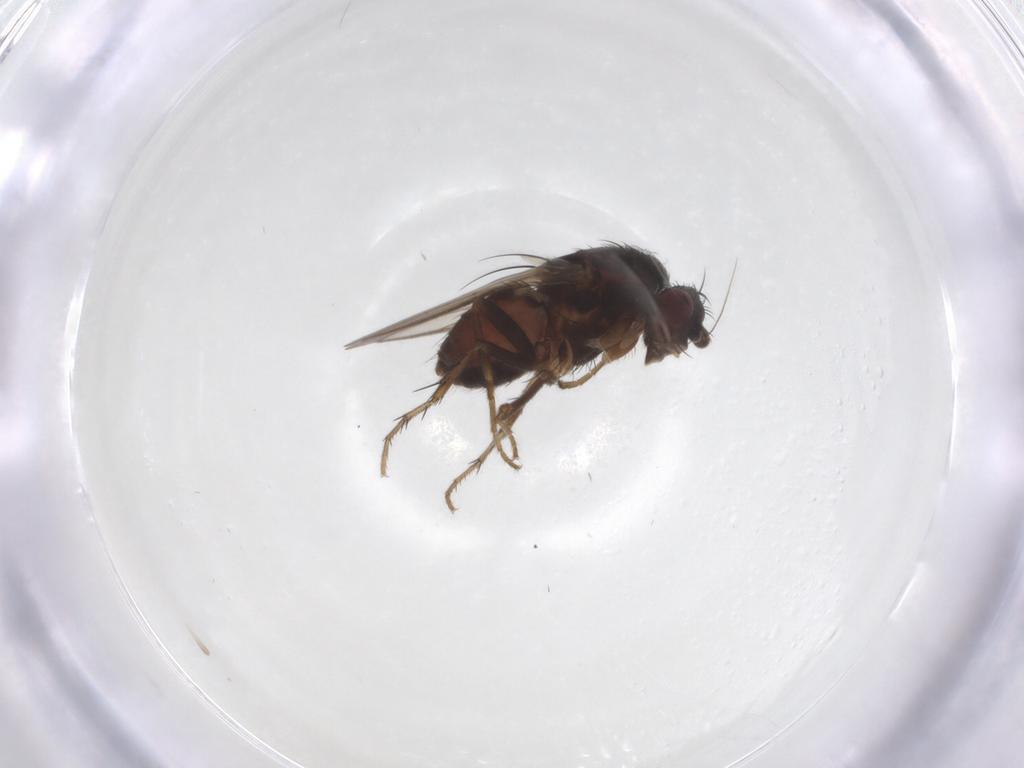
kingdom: Animalia
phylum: Arthropoda
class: Insecta
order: Diptera
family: Sphaeroceridae
